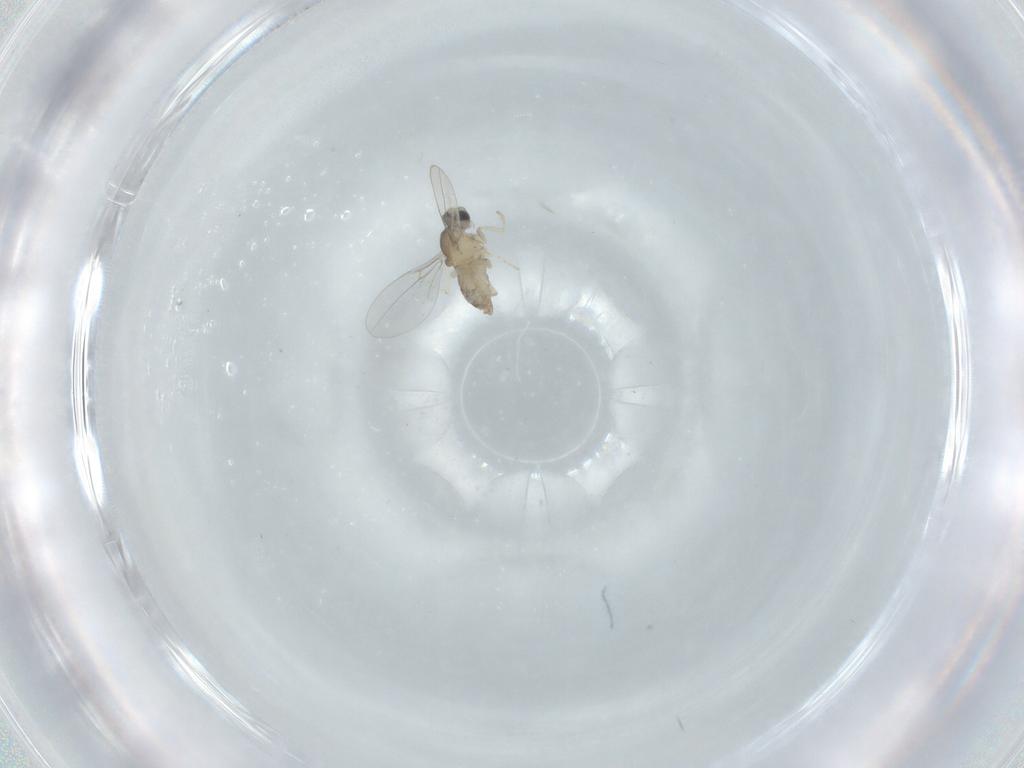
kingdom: Animalia
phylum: Arthropoda
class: Insecta
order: Diptera
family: Cecidomyiidae
